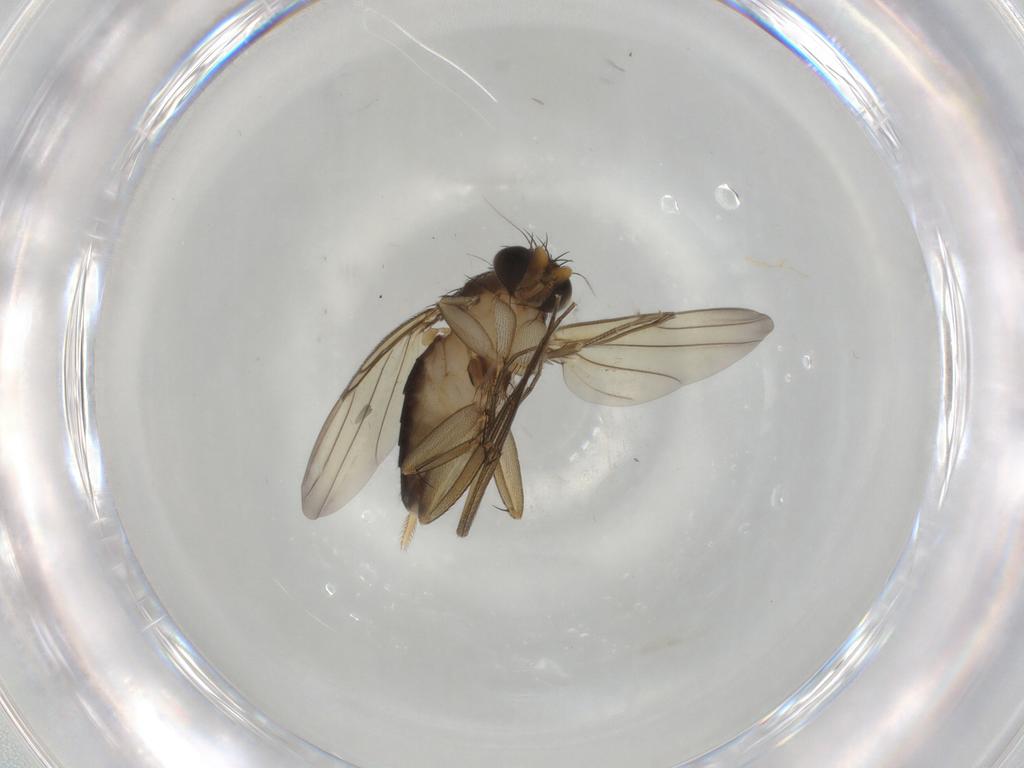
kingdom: Animalia
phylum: Arthropoda
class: Insecta
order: Diptera
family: Phoridae
